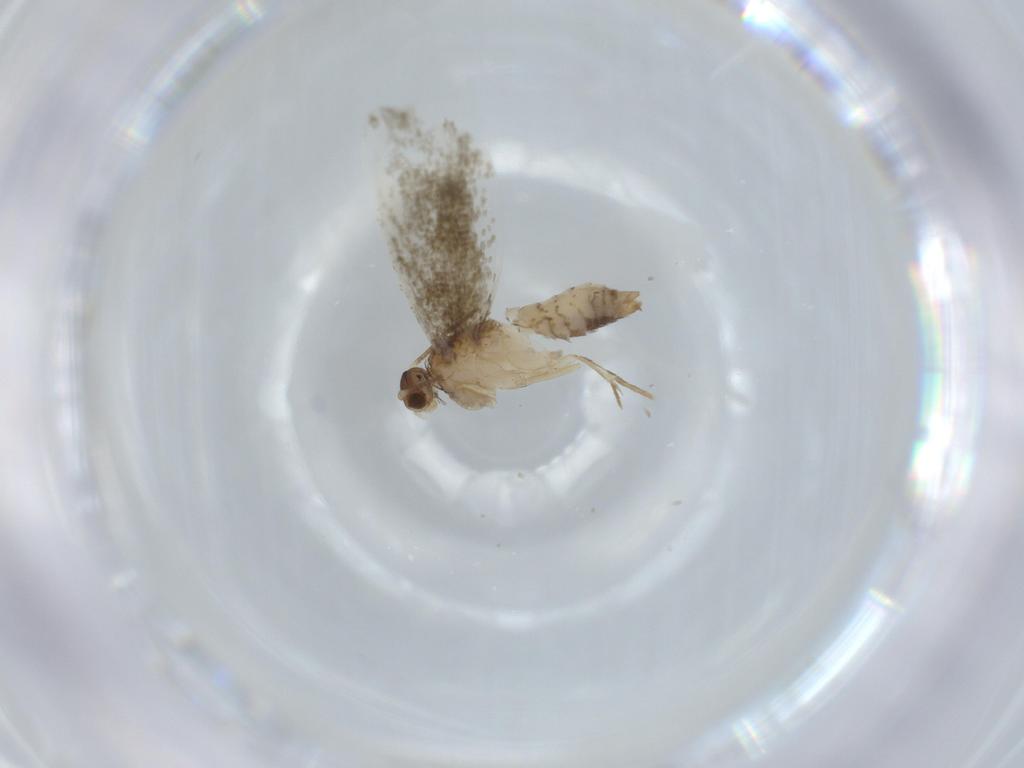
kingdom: Animalia
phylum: Arthropoda
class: Insecta
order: Lepidoptera
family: Tineidae
